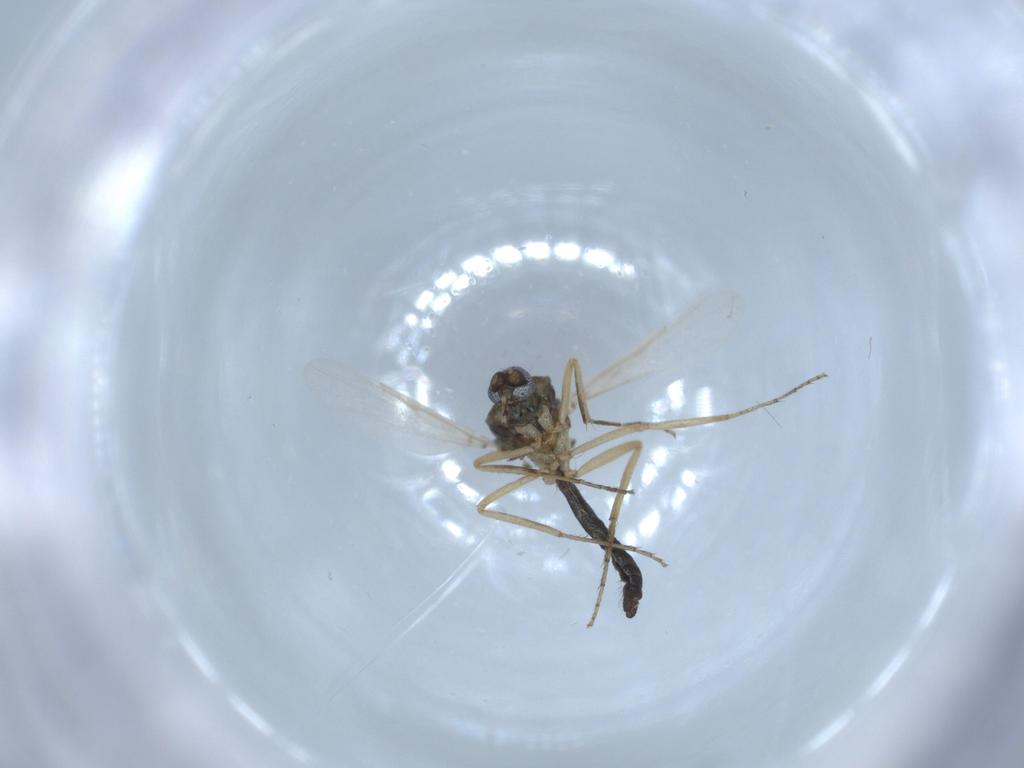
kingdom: Animalia
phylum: Arthropoda
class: Insecta
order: Diptera
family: Ceratopogonidae
